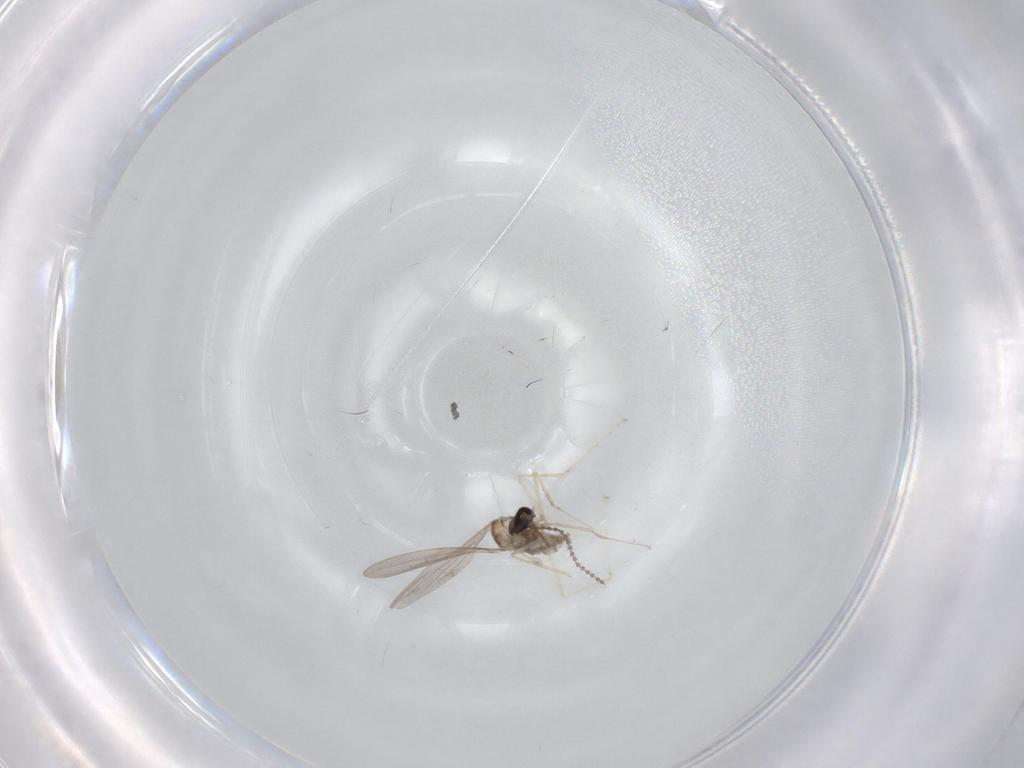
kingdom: Animalia
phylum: Arthropoda
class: Insecta
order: Diptera
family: Cecidomyiidae
